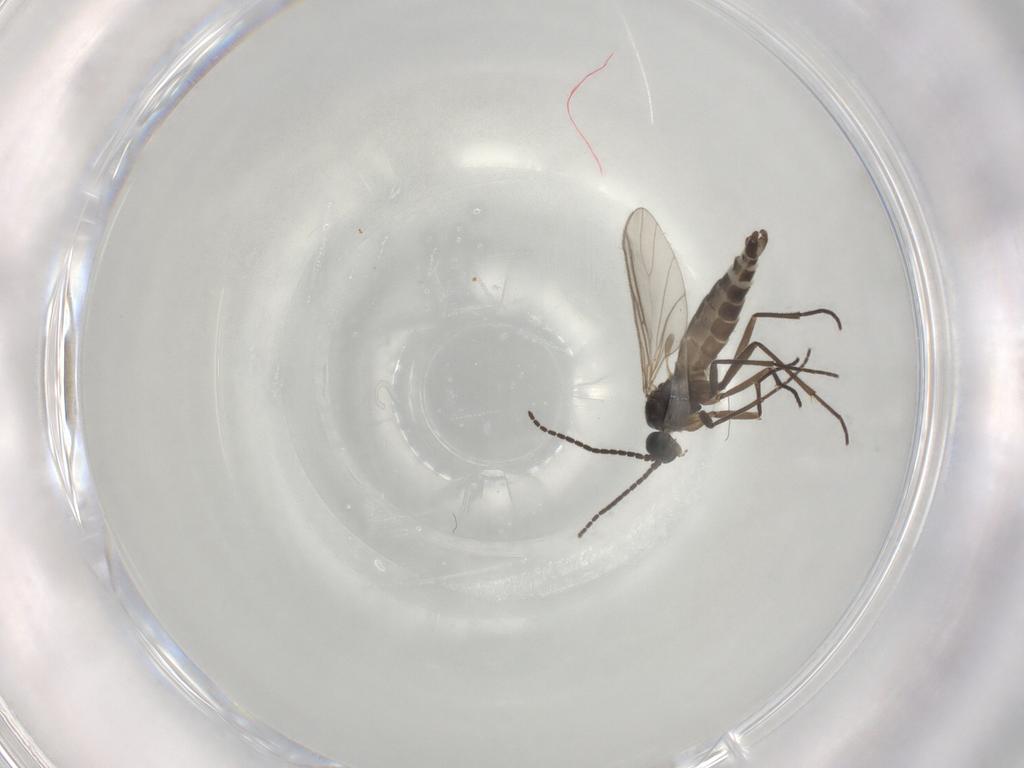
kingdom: Animalia
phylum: Arthropoda
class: Insecta
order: Diptera
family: Sciaridae
